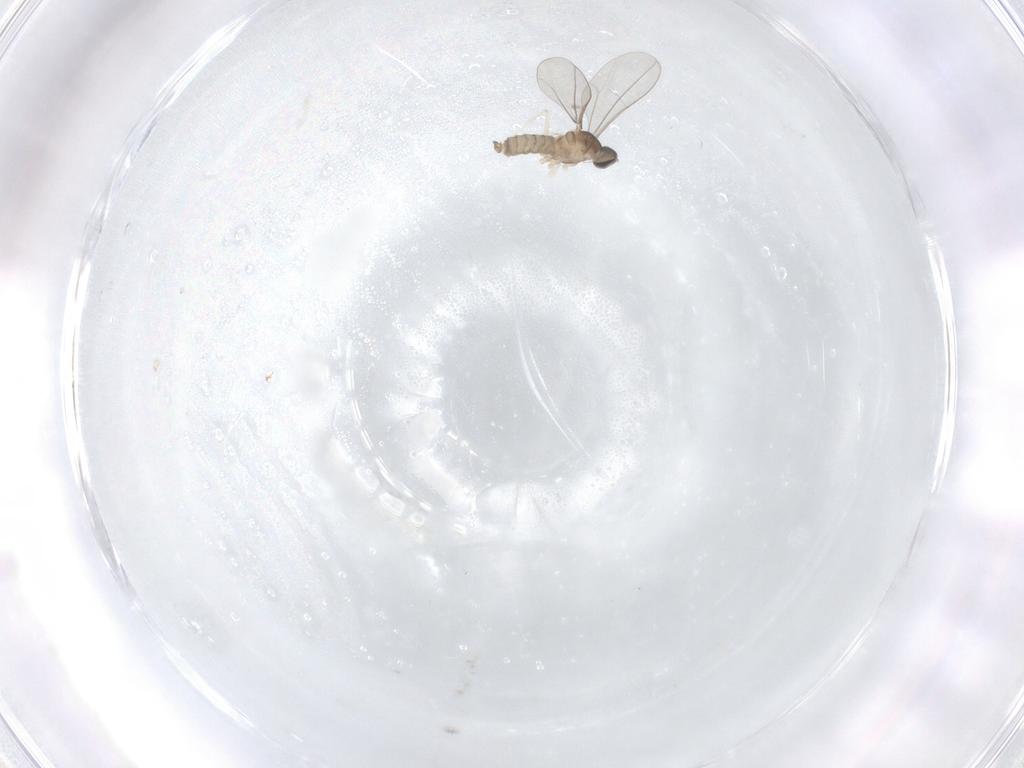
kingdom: Animalia
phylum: Arthropoda
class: Insecta
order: Diptera
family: Cecidomyiidae
